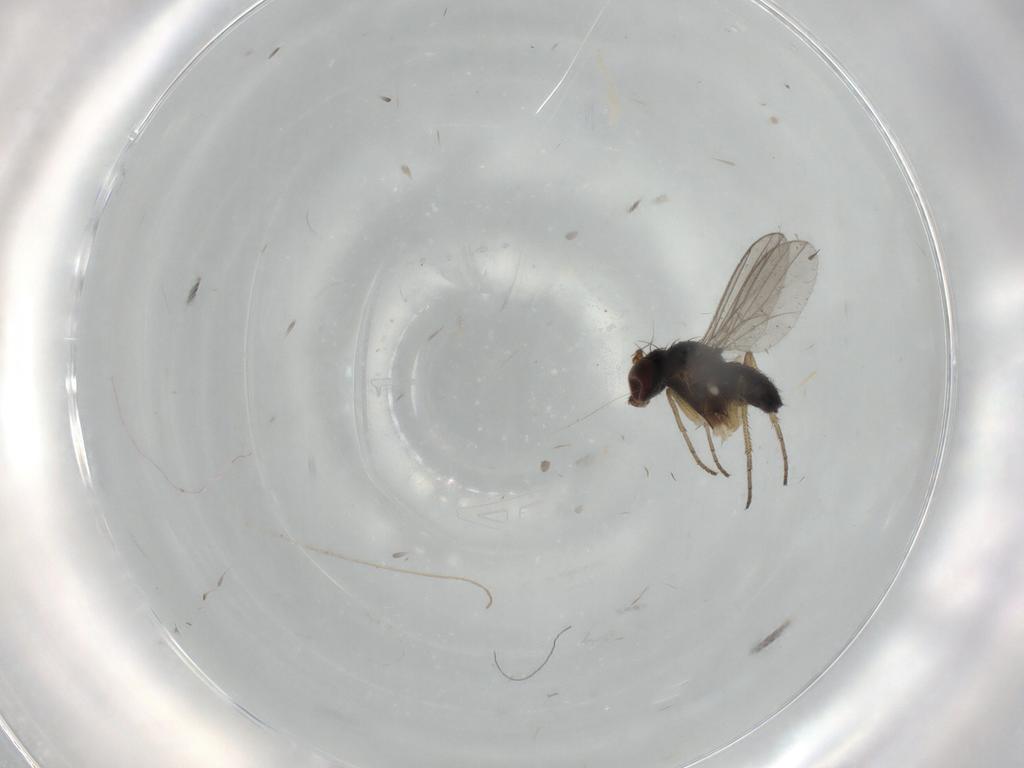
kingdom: Animalia
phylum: Arthropoda
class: Insecta
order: Diptera
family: Dolichopodidae
